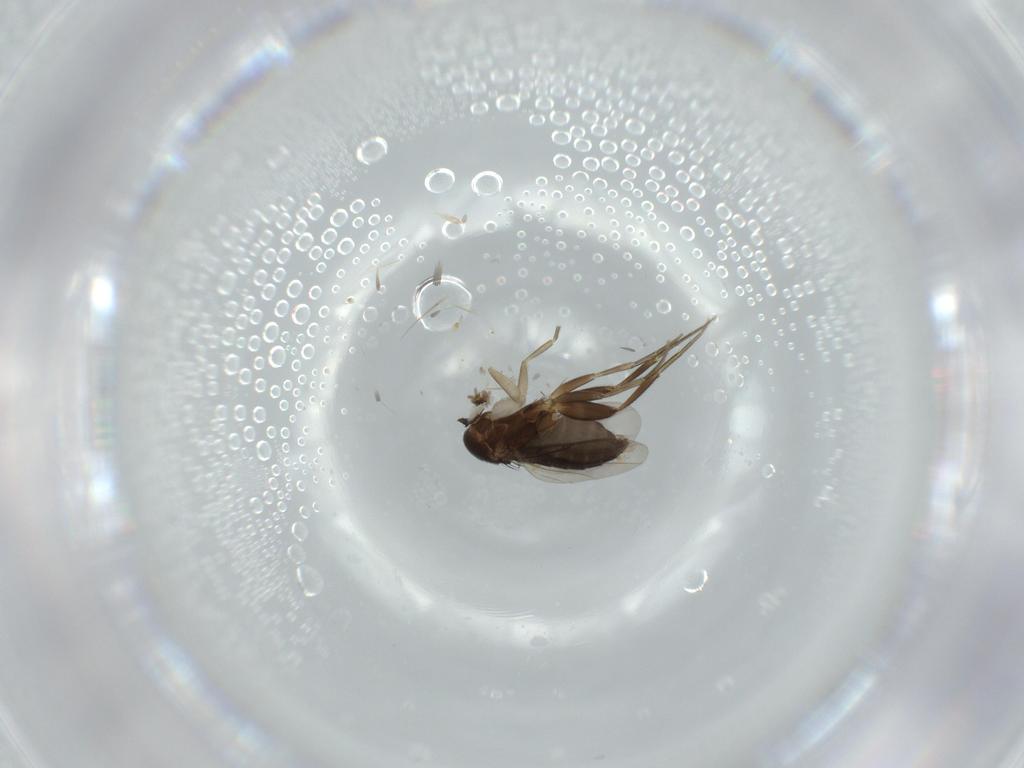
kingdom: Animalia
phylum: Arthropoda
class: Insecta
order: Diptera
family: Phoridae
